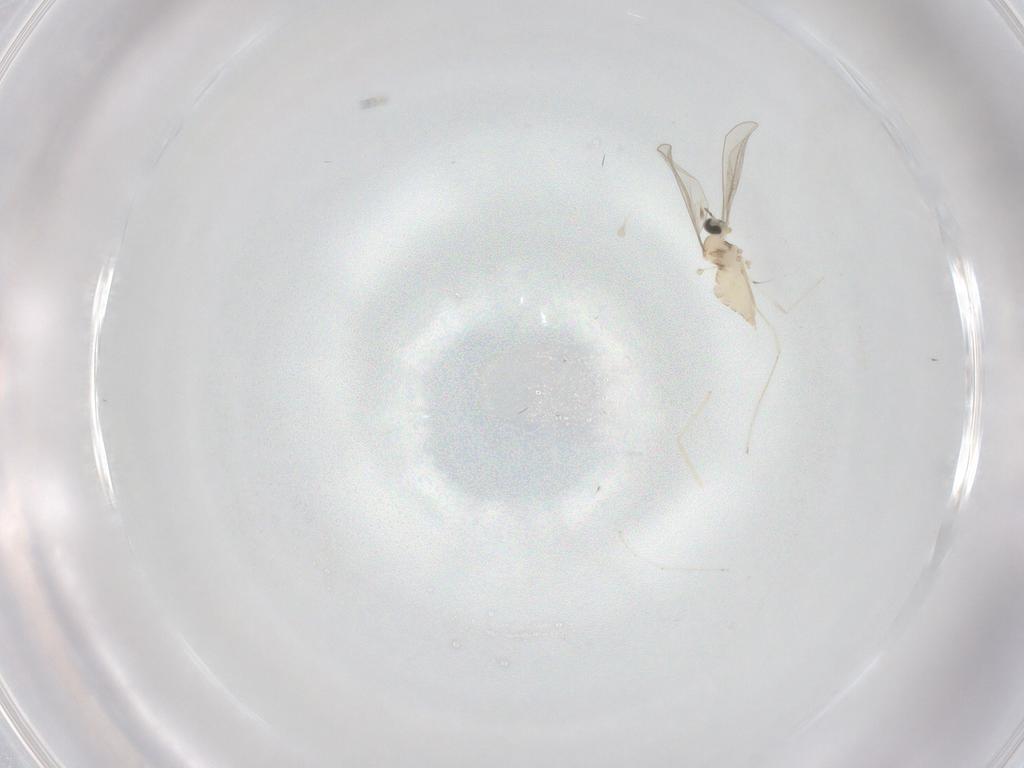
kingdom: Animalia
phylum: Arthropoda
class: Insecta
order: Diptera
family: Cecidomyiidae
